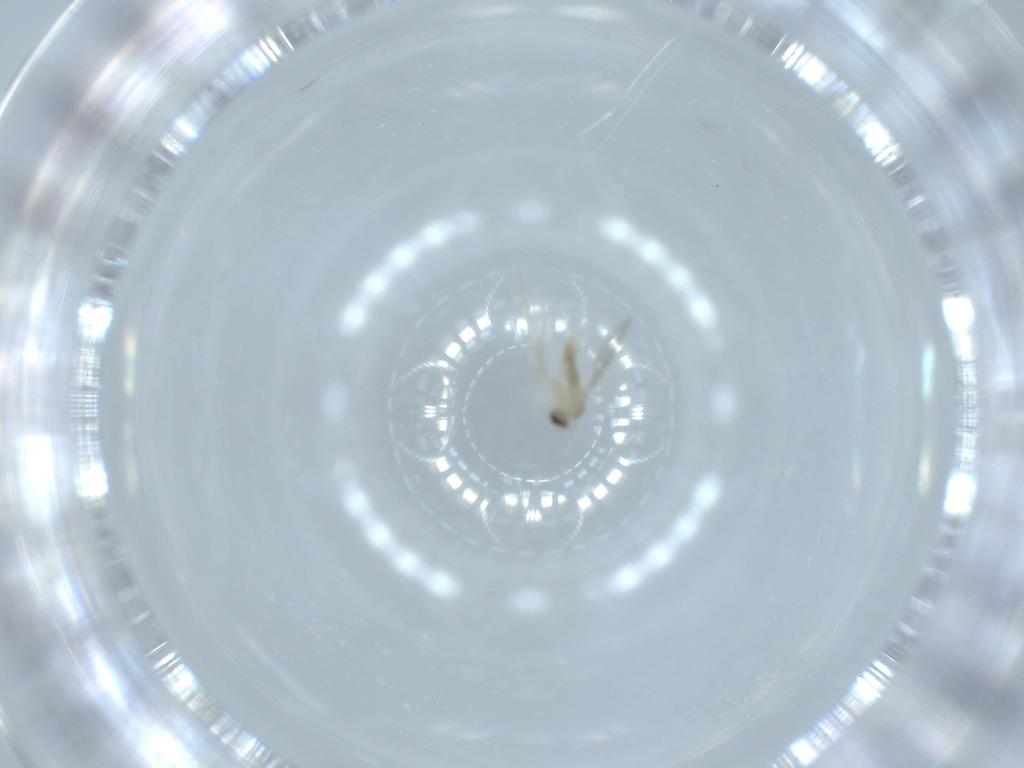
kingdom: Animalia
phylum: Arthropoda
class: Insecta
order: Diptera
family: Cecidomyiidae
